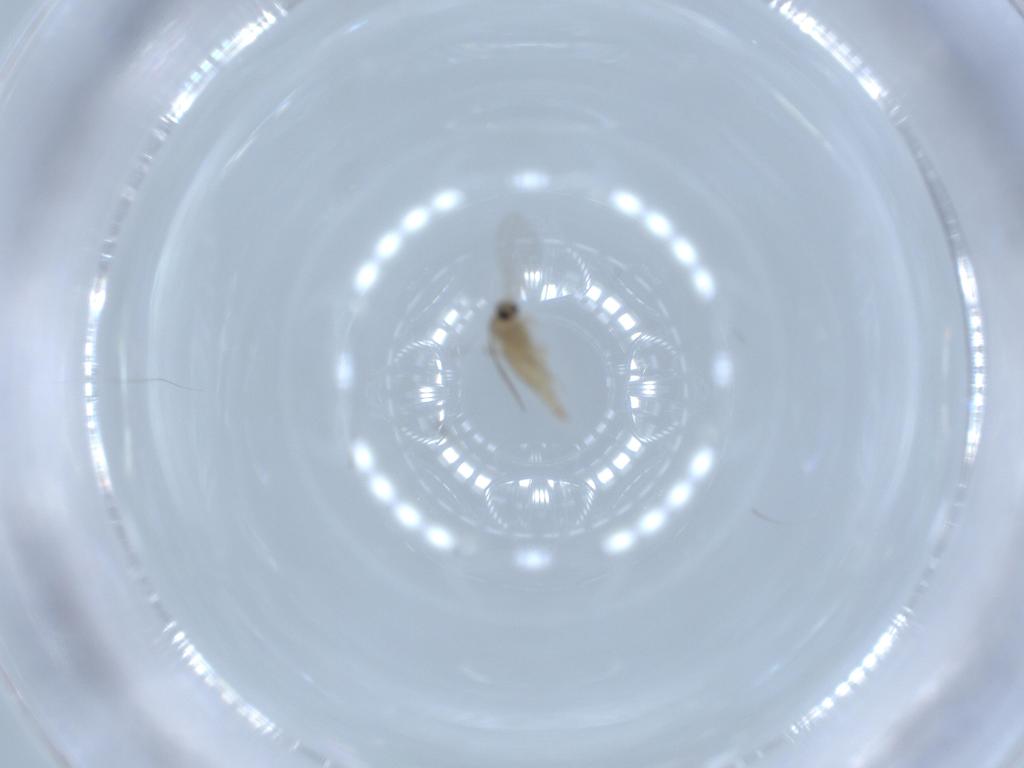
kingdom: Animalia
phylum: Arthropoda
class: Insecta
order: Diptera
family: Cecidomyiidae
